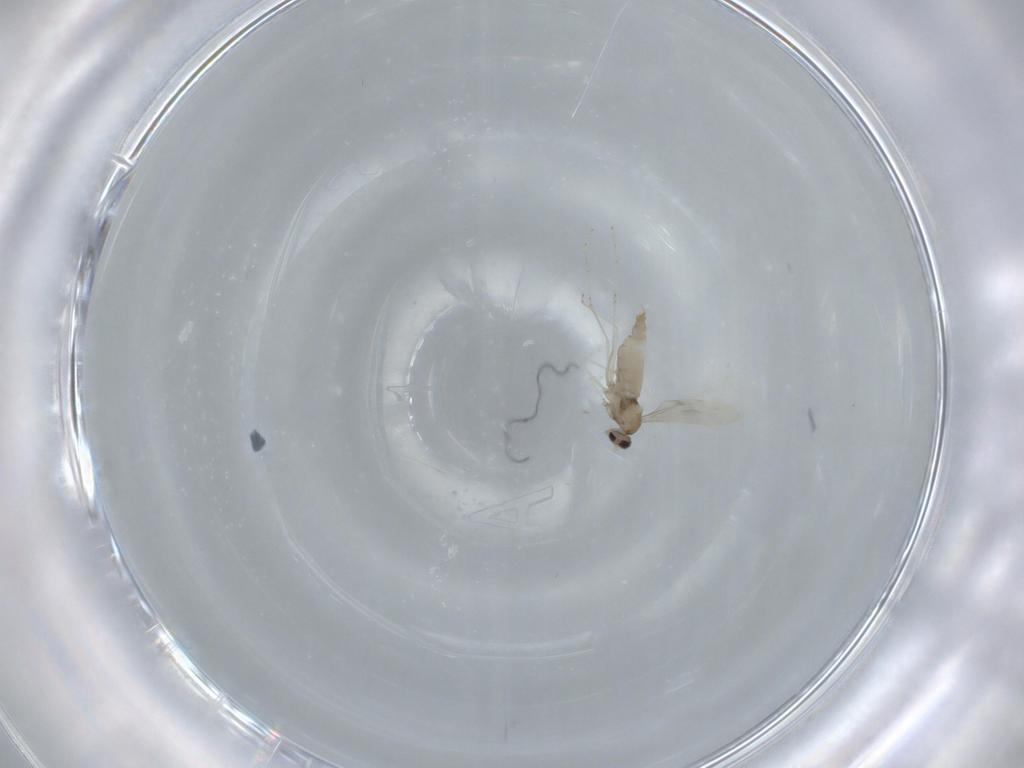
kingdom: Animalia
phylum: Arthropoda
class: Insecta
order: Diptera
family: Cecidomyiidae
